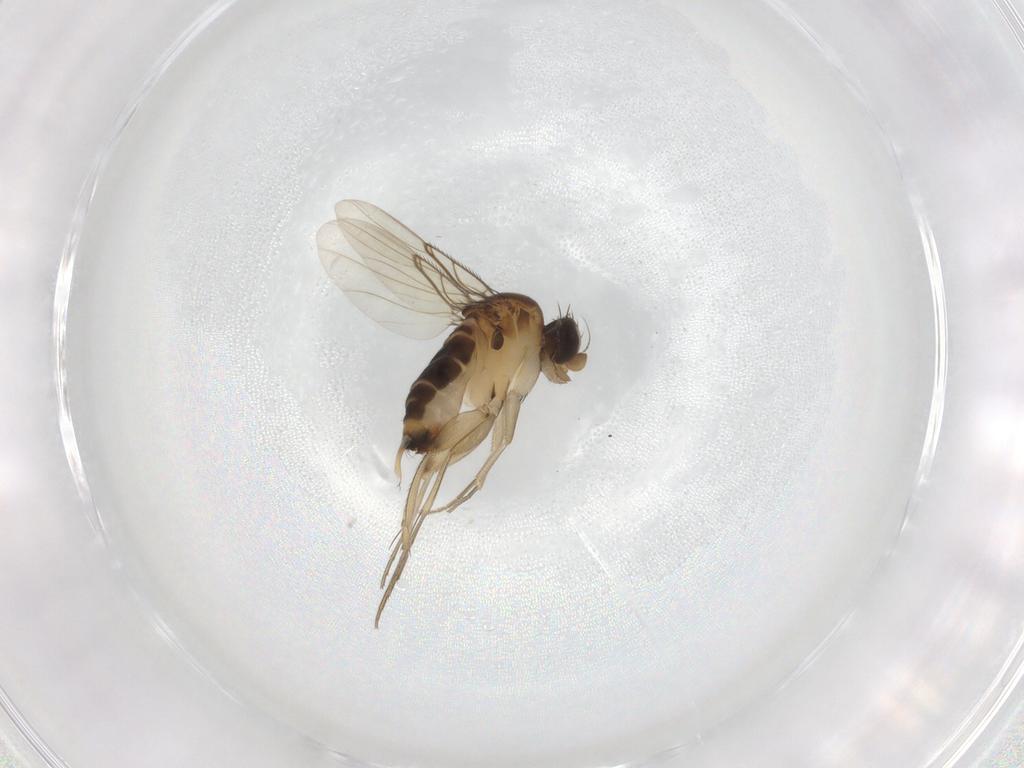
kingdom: Animalia
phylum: Arthropoda
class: Insecta
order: Diptera
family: Phoridae
